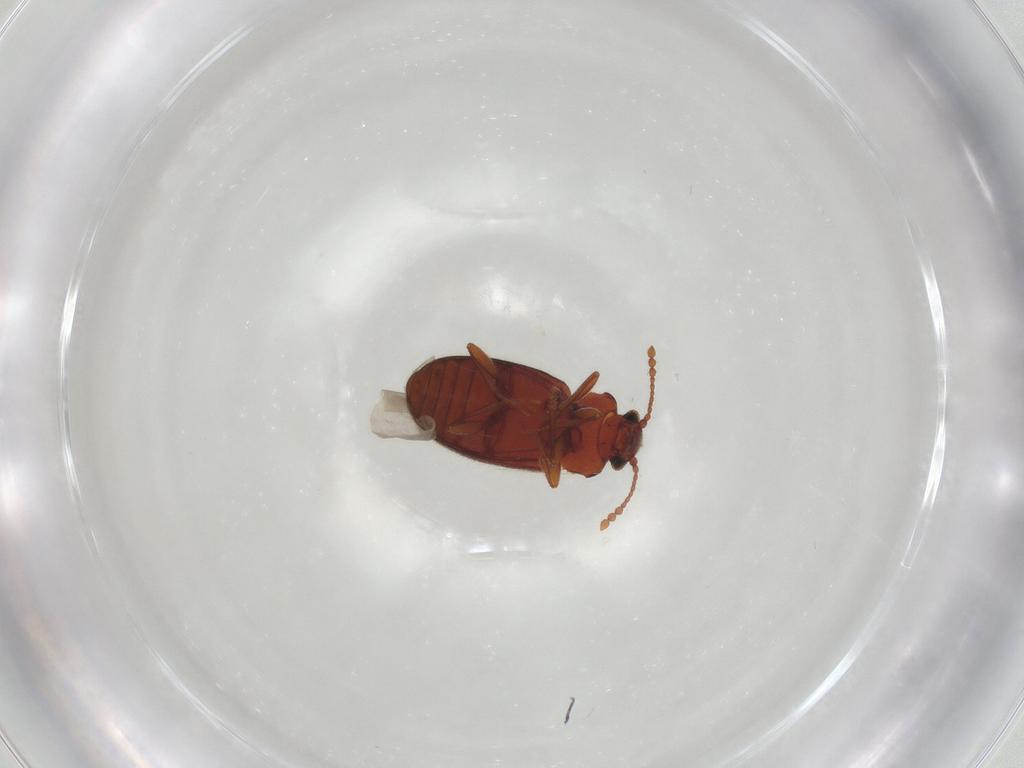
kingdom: Animalia
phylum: Arthropoda
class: Insecta
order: Coleoptera
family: Cryptophagidae
